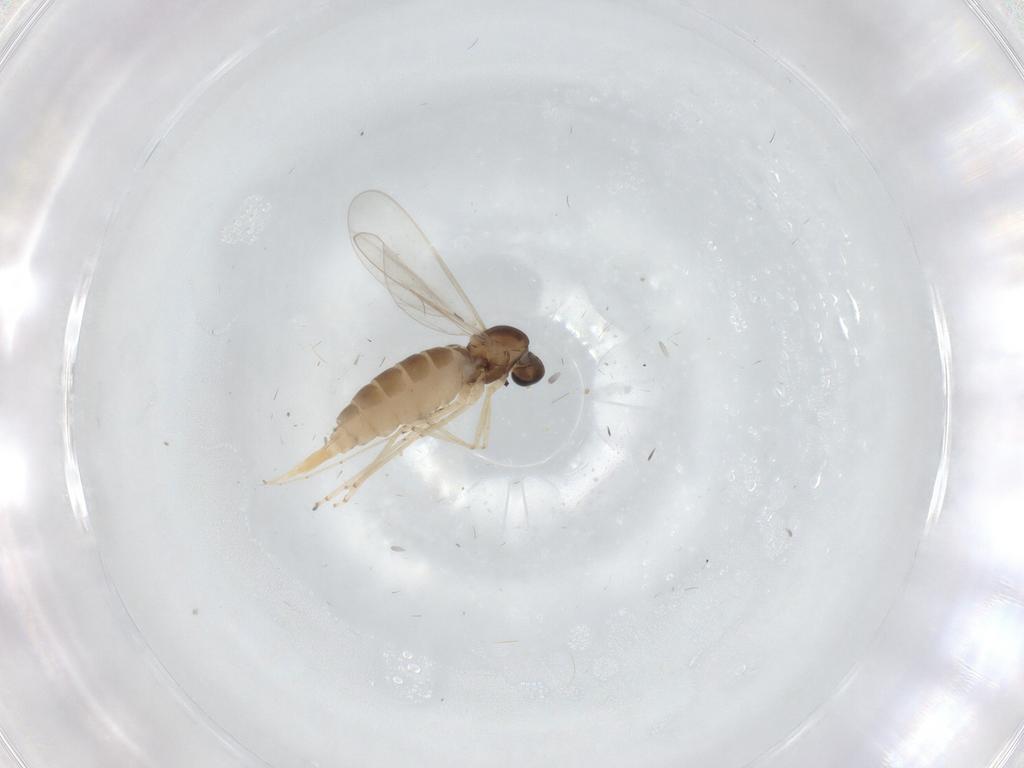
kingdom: Animalia
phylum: Arthropoda
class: Insecta
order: Diptera
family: Cecidomyiidae
